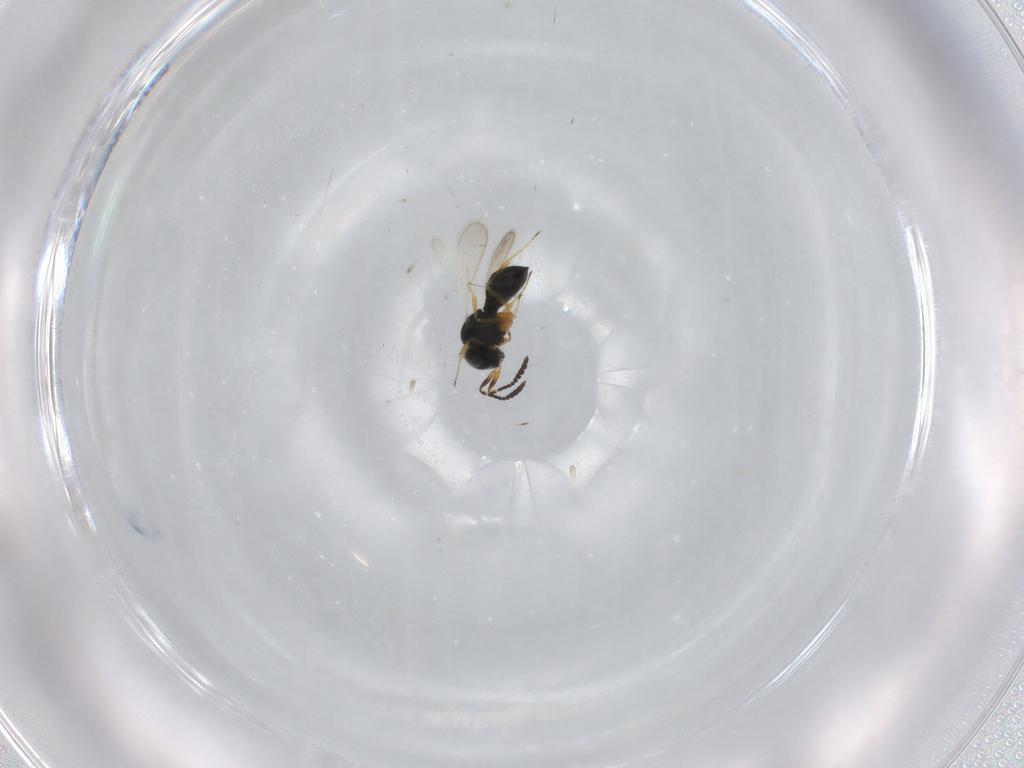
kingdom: Animalia
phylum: Arthropoda
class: Insecta
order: Hymenoptera
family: Scelionidae
